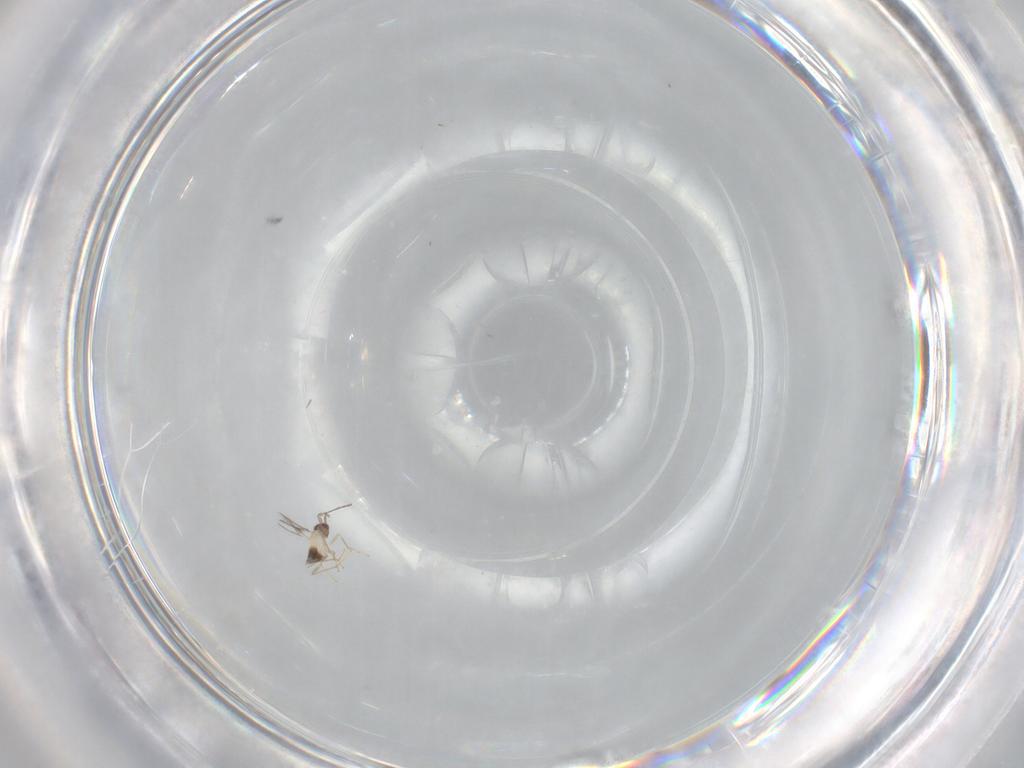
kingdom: Animalia
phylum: Arthropoda
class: Insecta
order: Hymenoptera
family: Mymaridae
